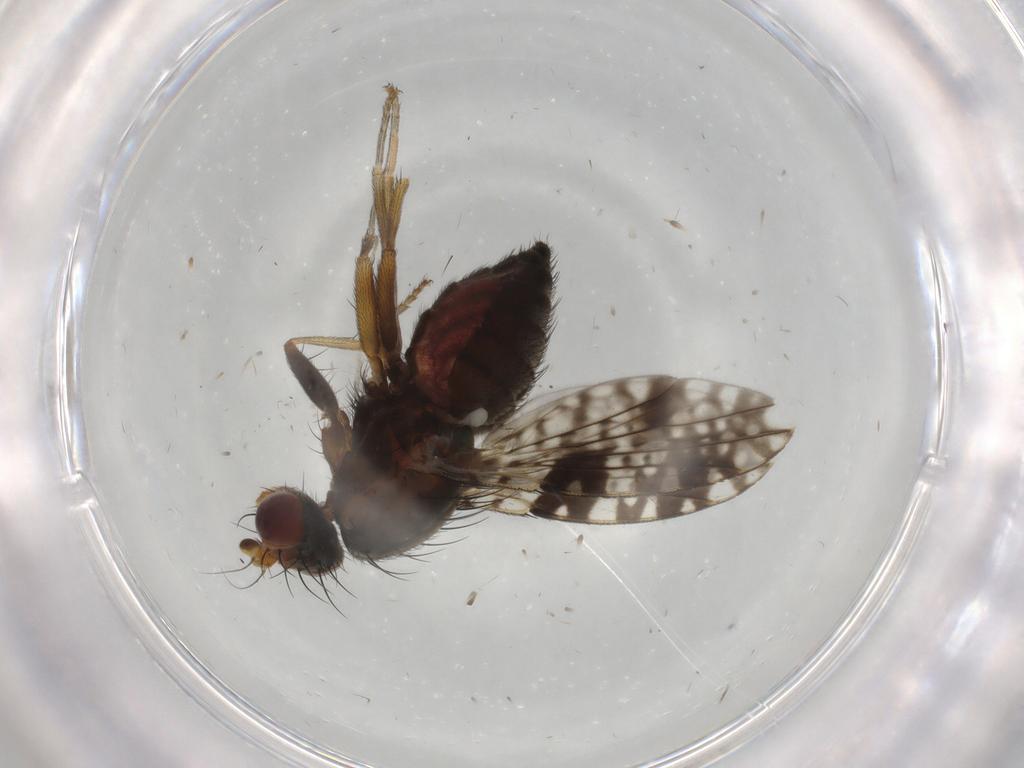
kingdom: Animalia
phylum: Arthropoda
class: Insecta
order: Diptera
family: Tephritidae
